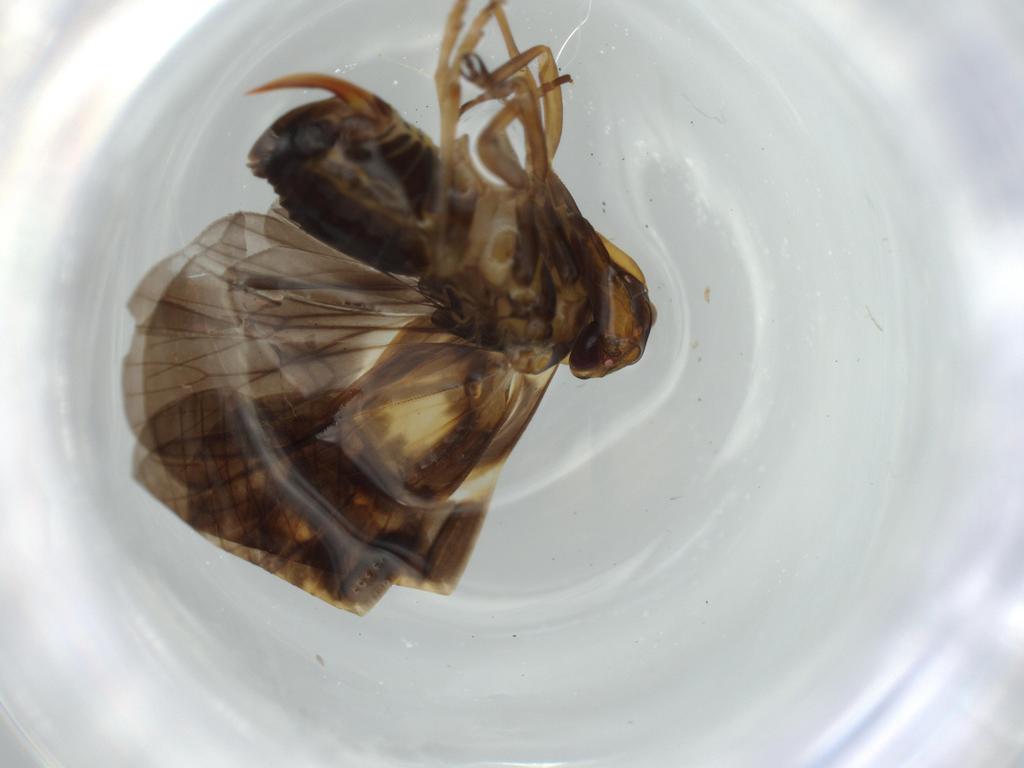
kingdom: Animalia
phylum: Arthropoda
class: Insecta
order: Hemiptera
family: Cixiidae
